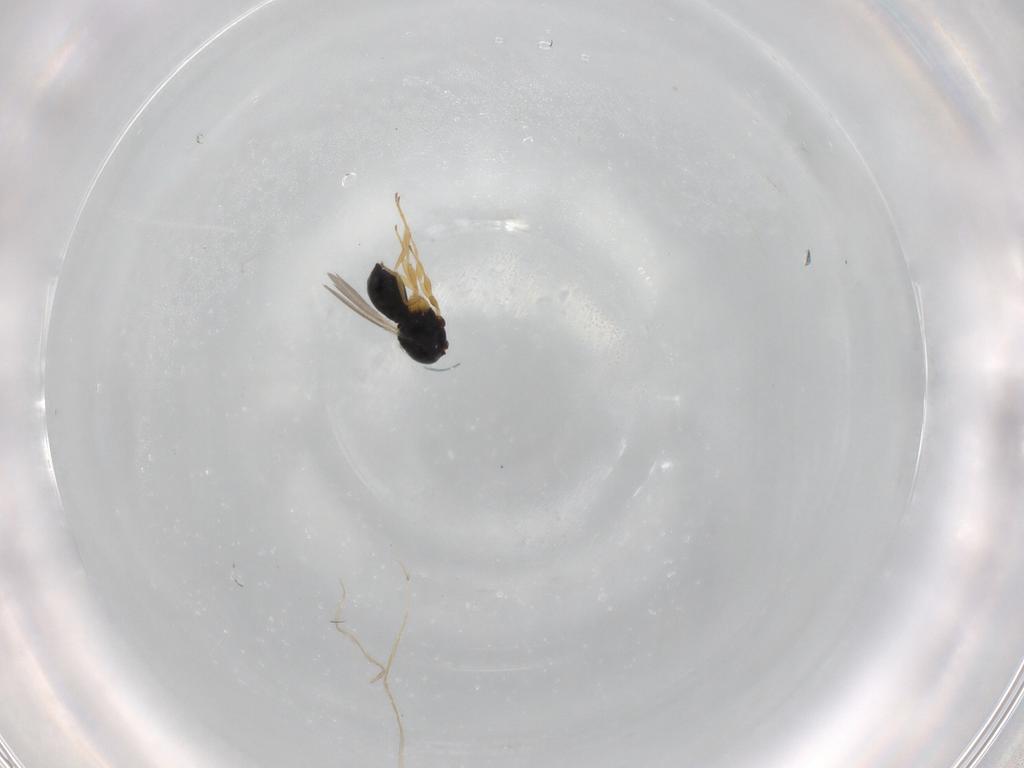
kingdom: Animalia
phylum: Arthropoda
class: Insecta
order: Hymenoptera
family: Scelionidae
